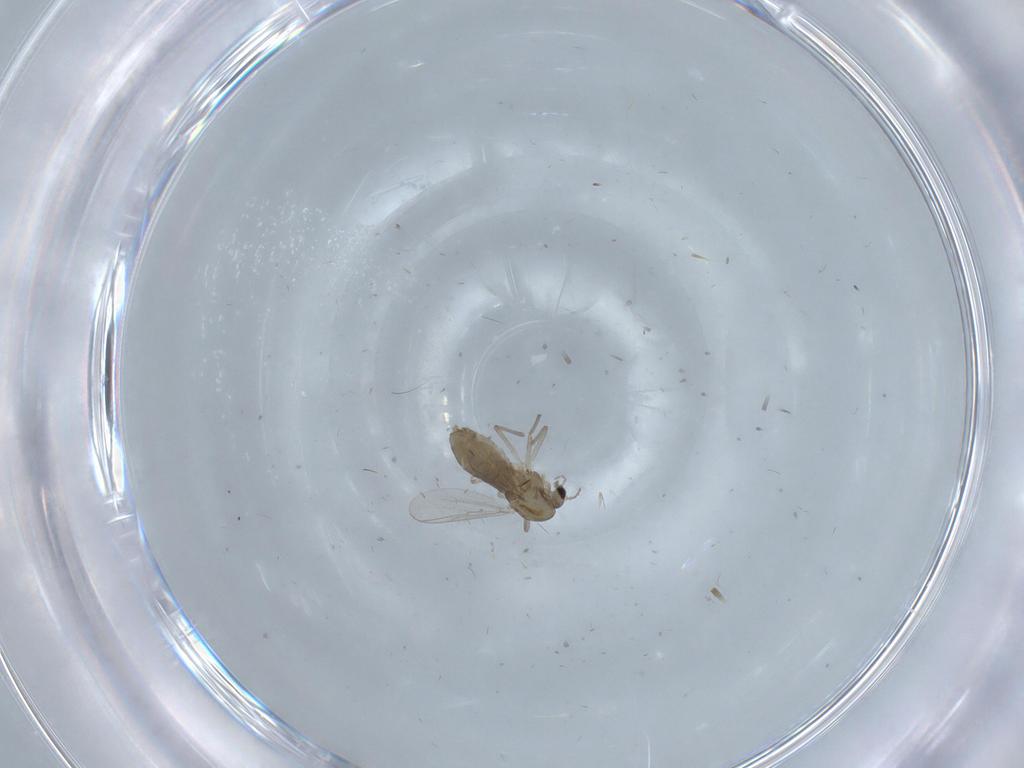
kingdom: Animalia
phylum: Arthropoda
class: Insecta
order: Diptera
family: Chironomidae
